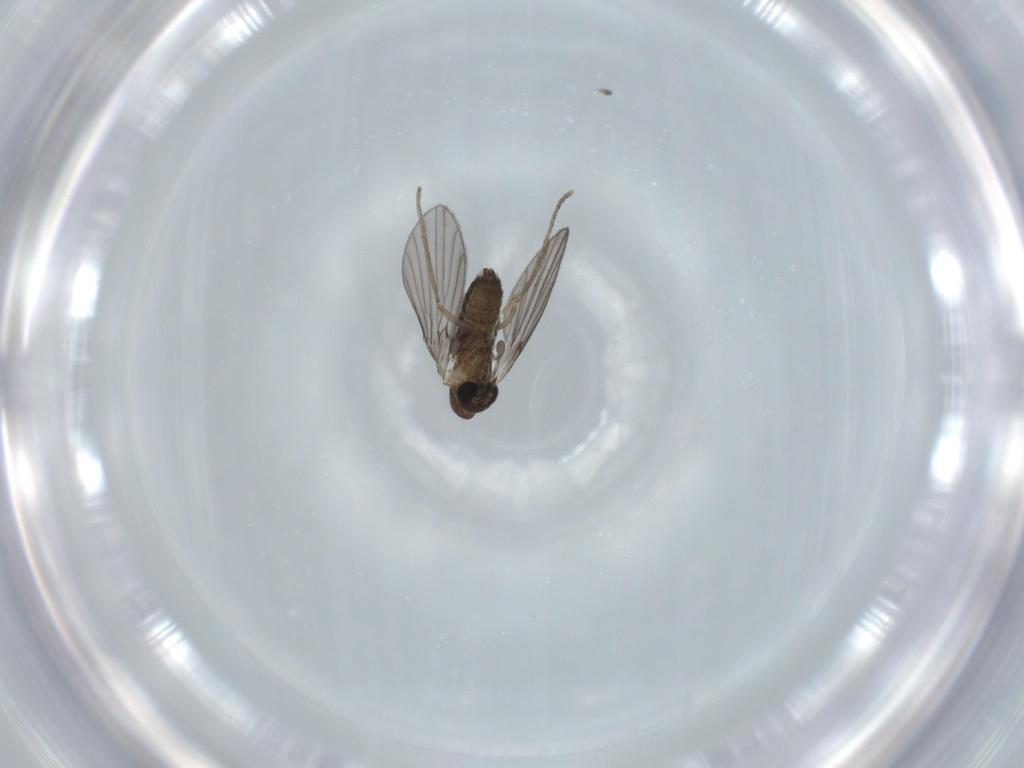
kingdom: Animalia
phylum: Arthropoda
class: Insecta
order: Diptera
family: Psychodidae
